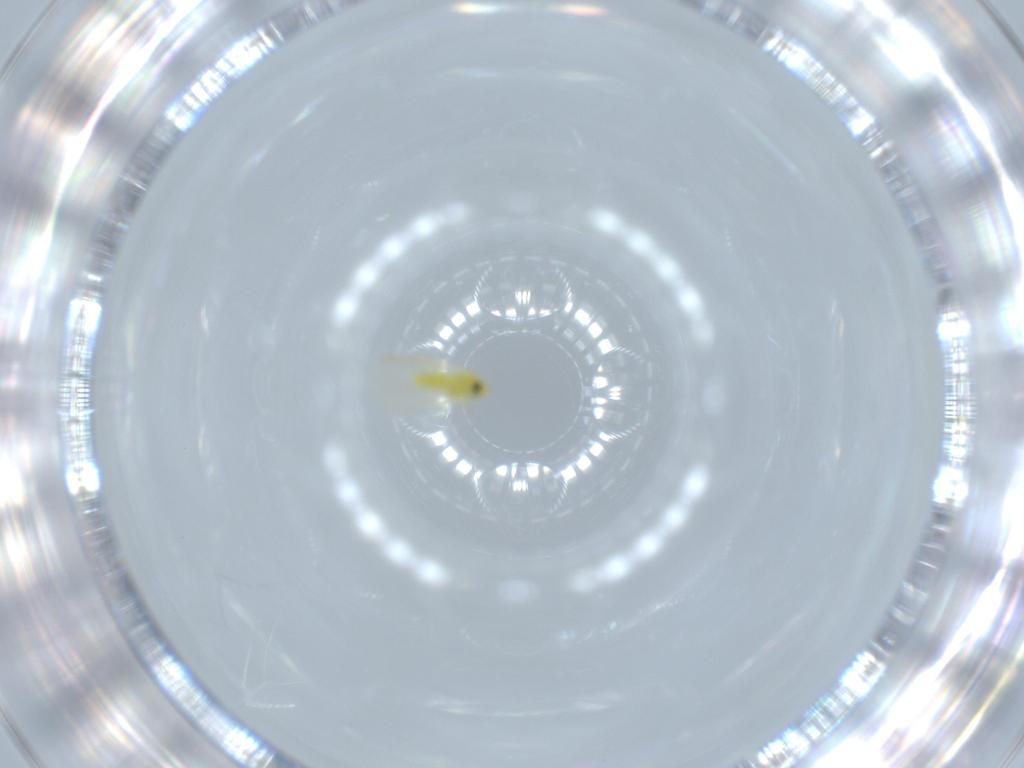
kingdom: Animalia
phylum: Arthropoda
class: Insecta
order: Hemiptera
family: Aleyrodidae
